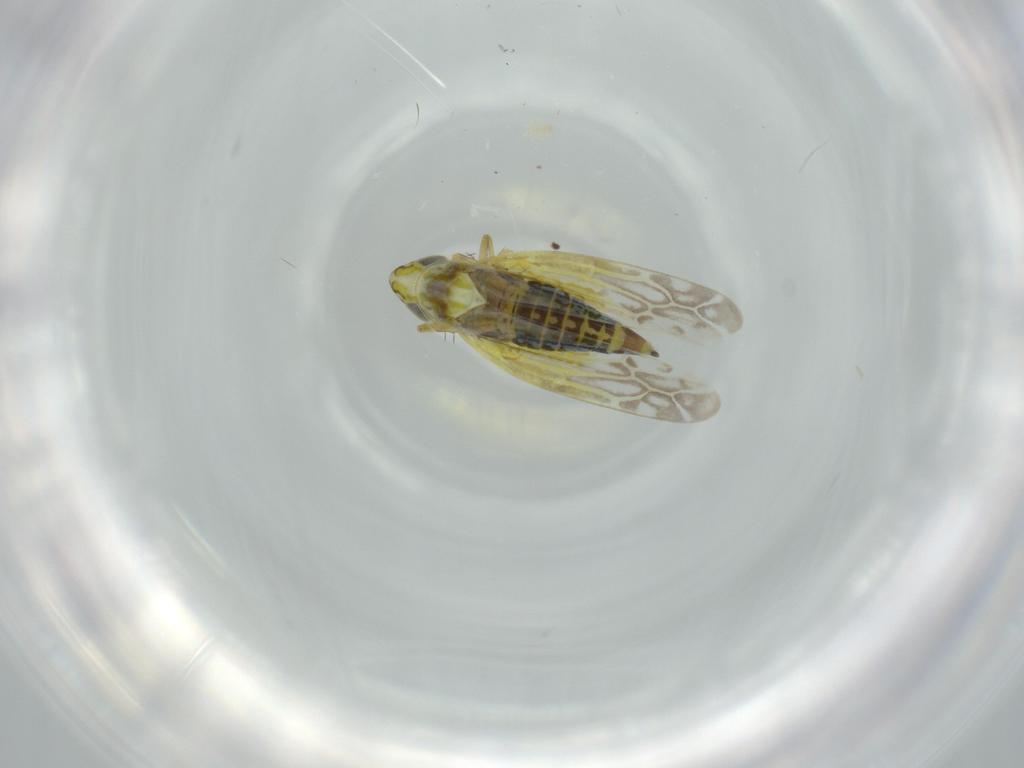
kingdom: Animalia
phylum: Arthropoda
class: Insecta
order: Hemiptera
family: Cicadellidae
